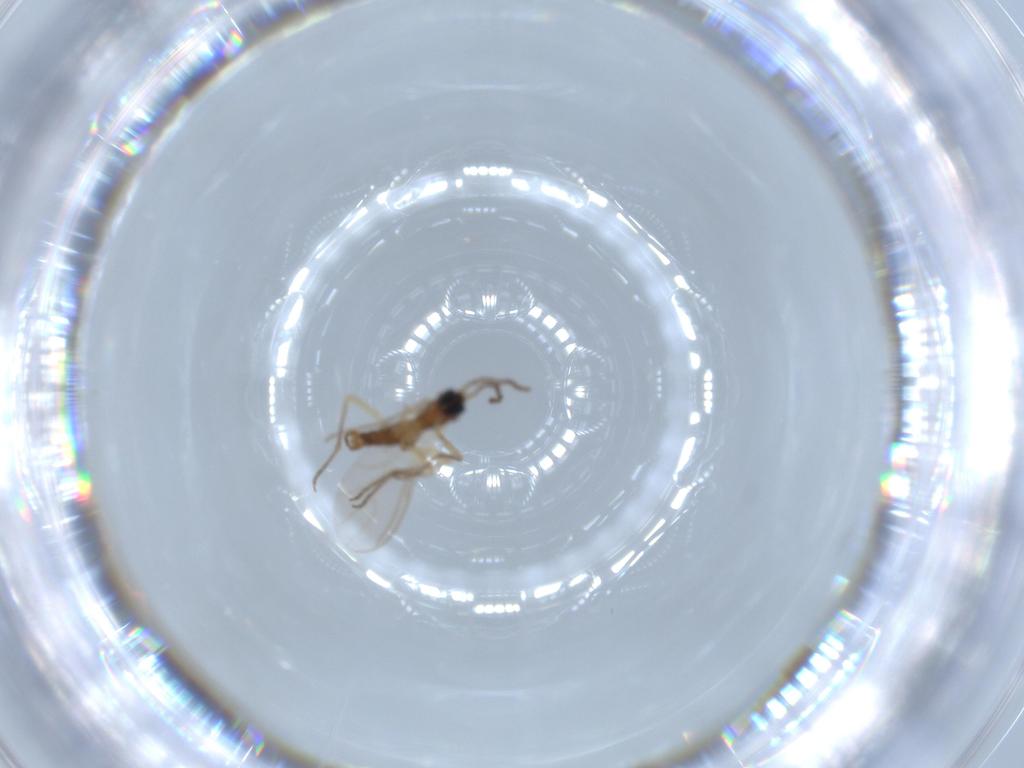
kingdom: Animalia
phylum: Arthropoda
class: Insecta
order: Diptera
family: Sciaridae
